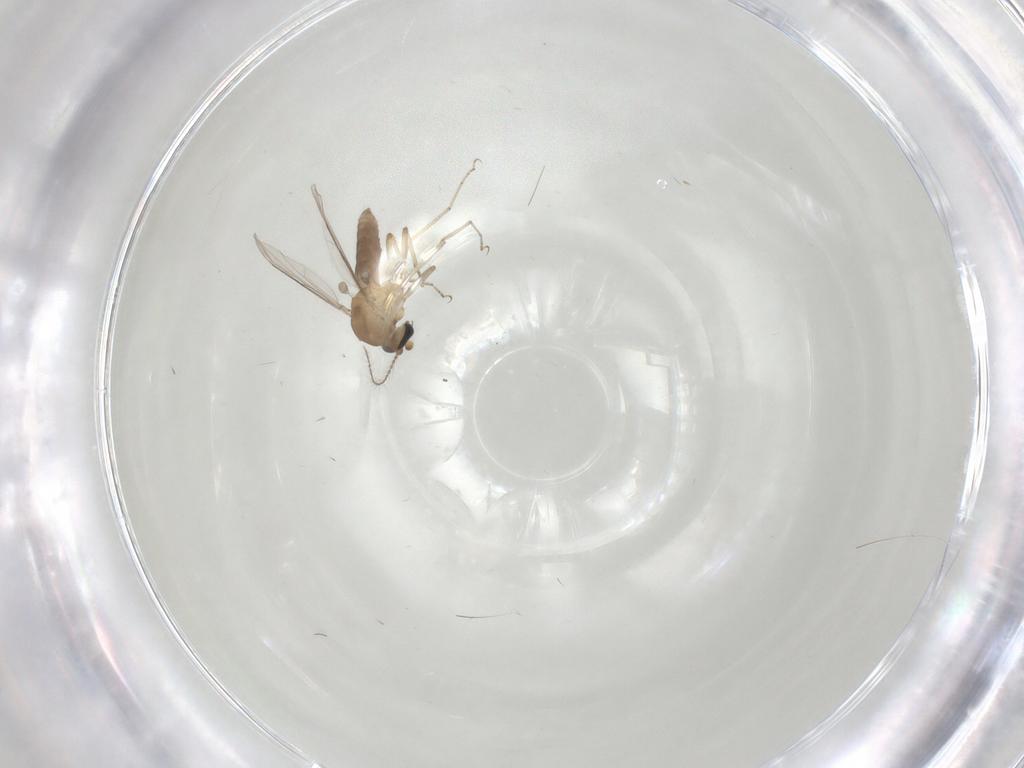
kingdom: Animalia
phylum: Arthropoda
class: Insecta
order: Diptera
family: Ceratopogonidae
